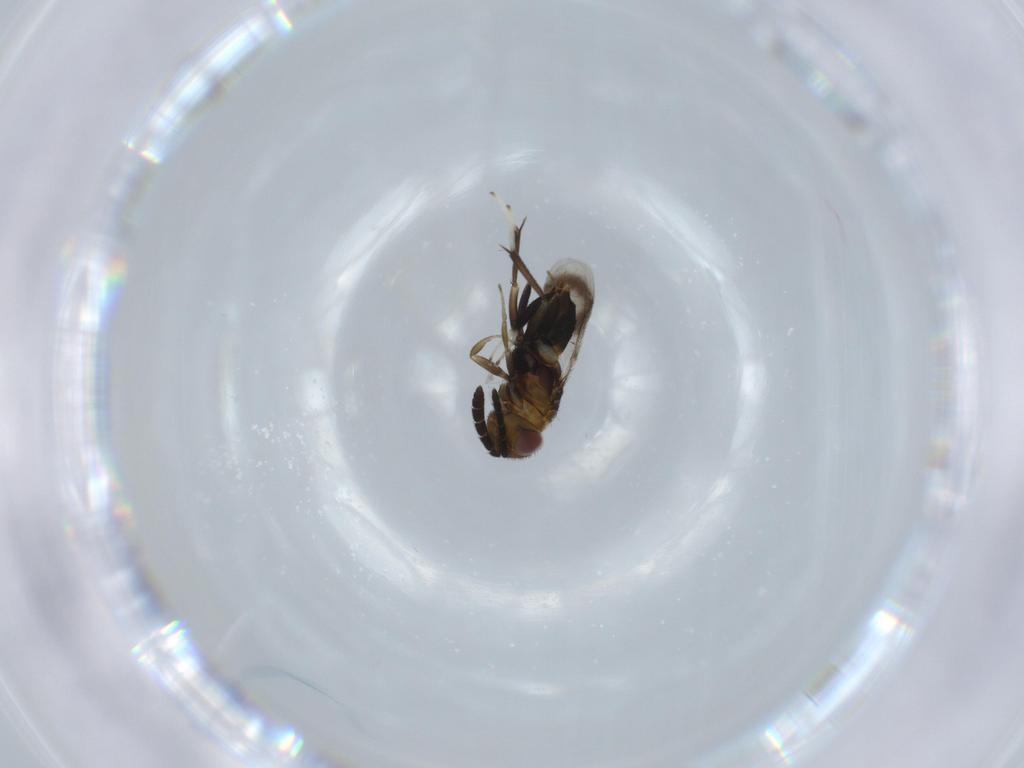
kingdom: Animalia
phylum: Arthropoda
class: Insecta
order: Hymenoptera
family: Aphelinidae
